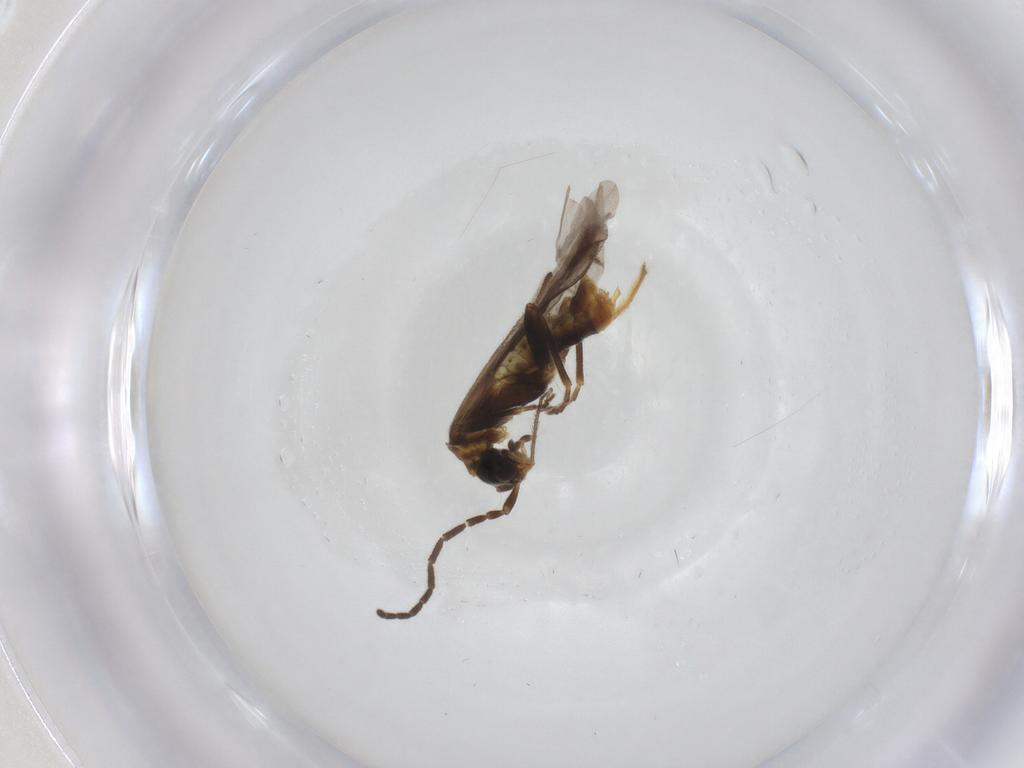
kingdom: Animalia
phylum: Arthropoda
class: Insecta
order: Coleoptera
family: Cantharidae
